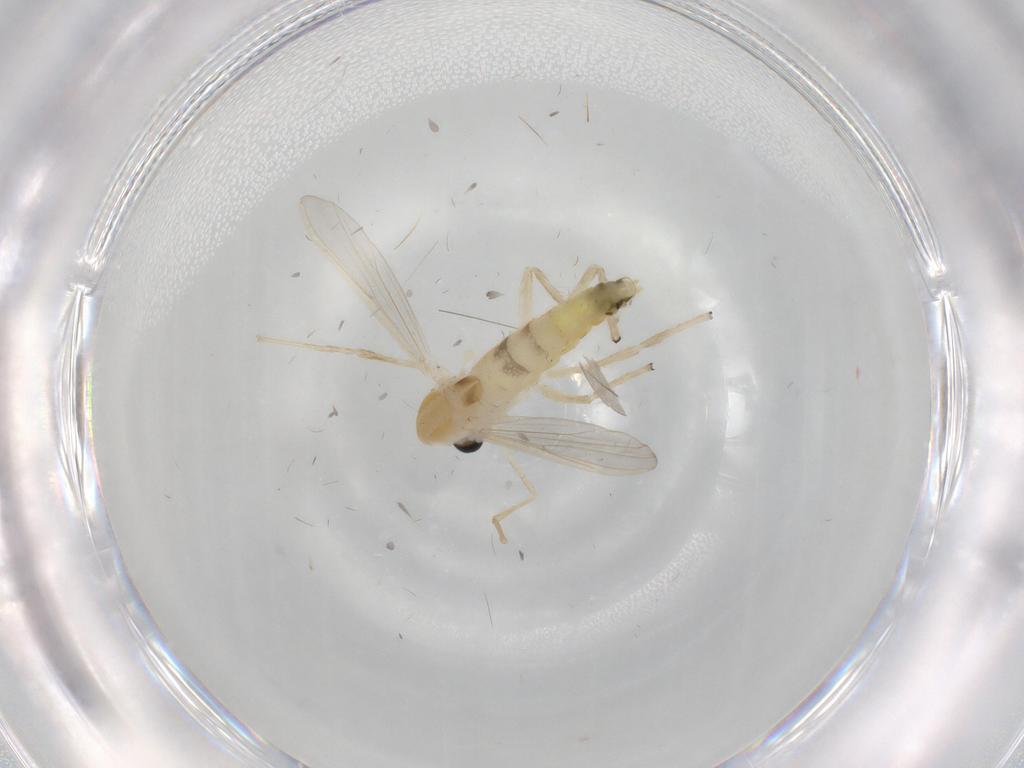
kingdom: Animalia
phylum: Arthropoda
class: Insecta
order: Diptera
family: Chironomidae
